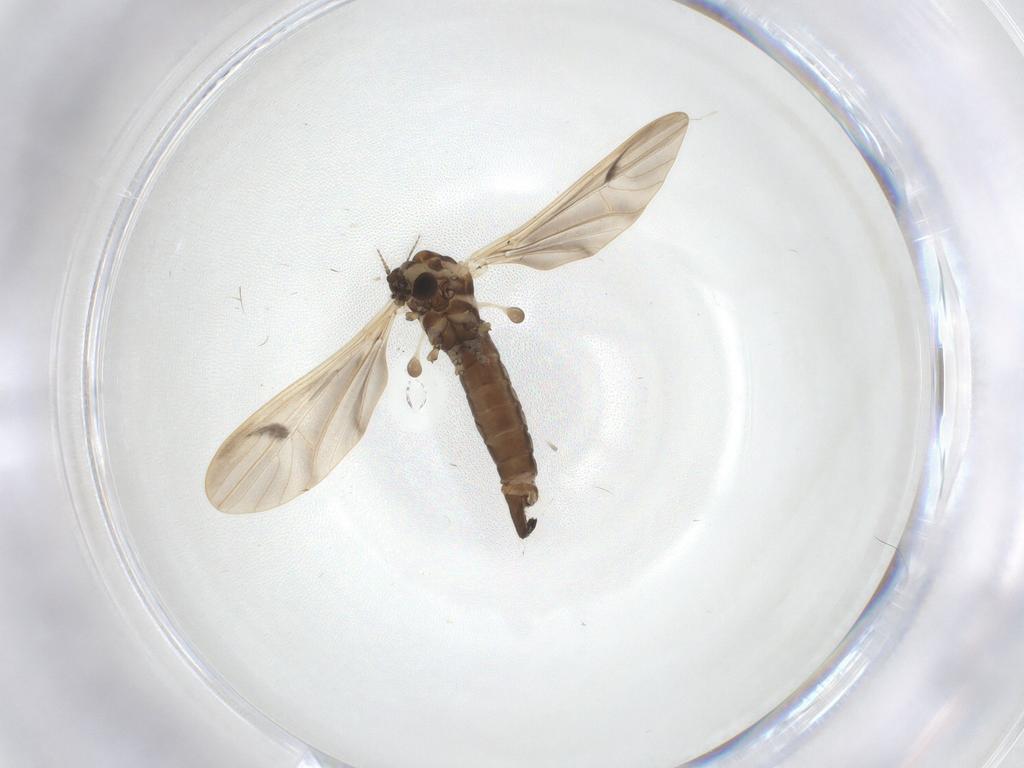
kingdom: Animalia
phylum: Arthropoda
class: Insecta
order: Diptera
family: Limoniidae
